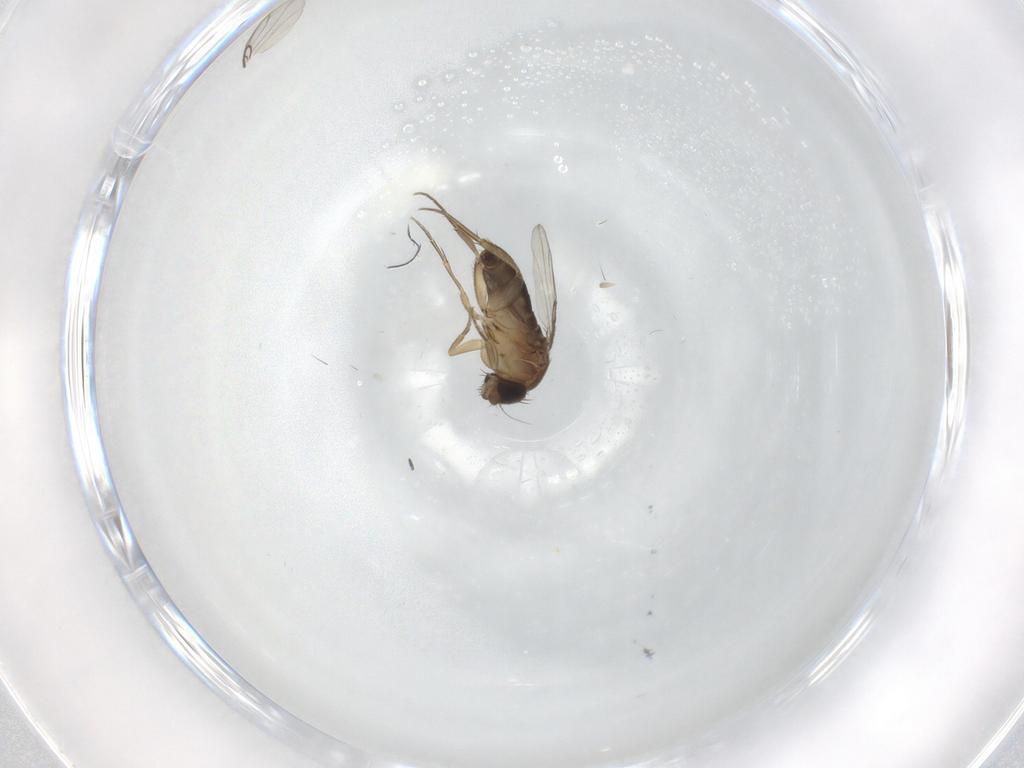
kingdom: Animalia
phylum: Arthropoda
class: Insecta
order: Diptera
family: Phoridae
